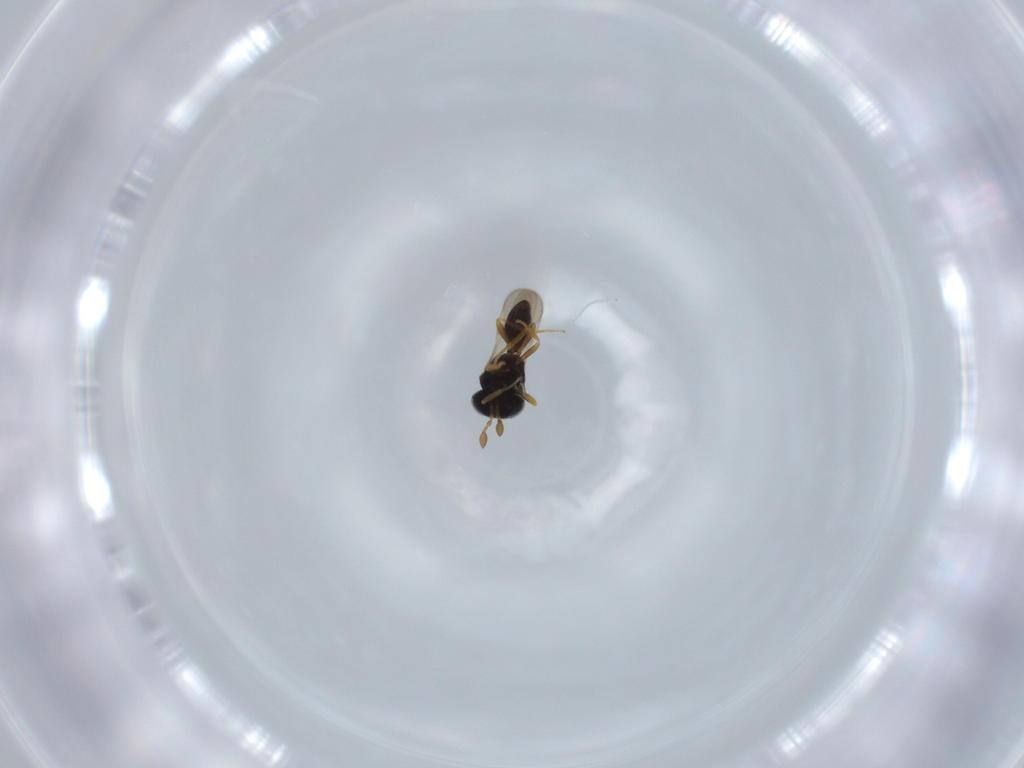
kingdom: Animalia
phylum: Arthropoda
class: Insecta
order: Hymenoptera
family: Scelionidae
